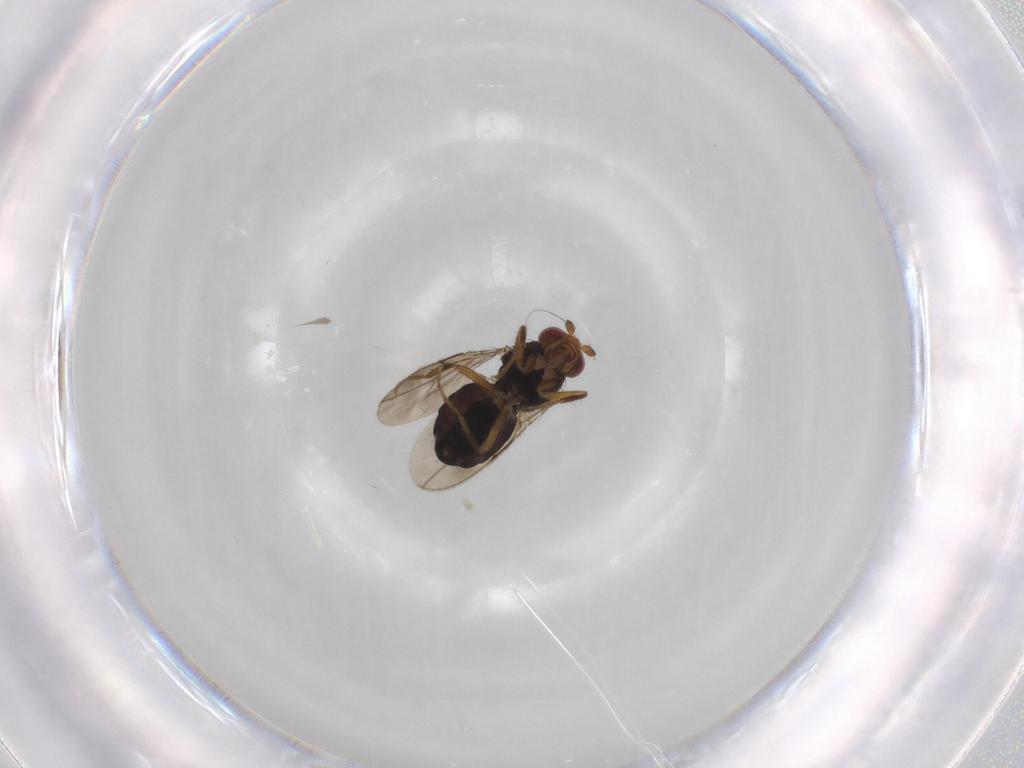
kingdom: Animalia
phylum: Arthropoda
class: Insecta
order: Diptera
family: Sphaeroceridae
